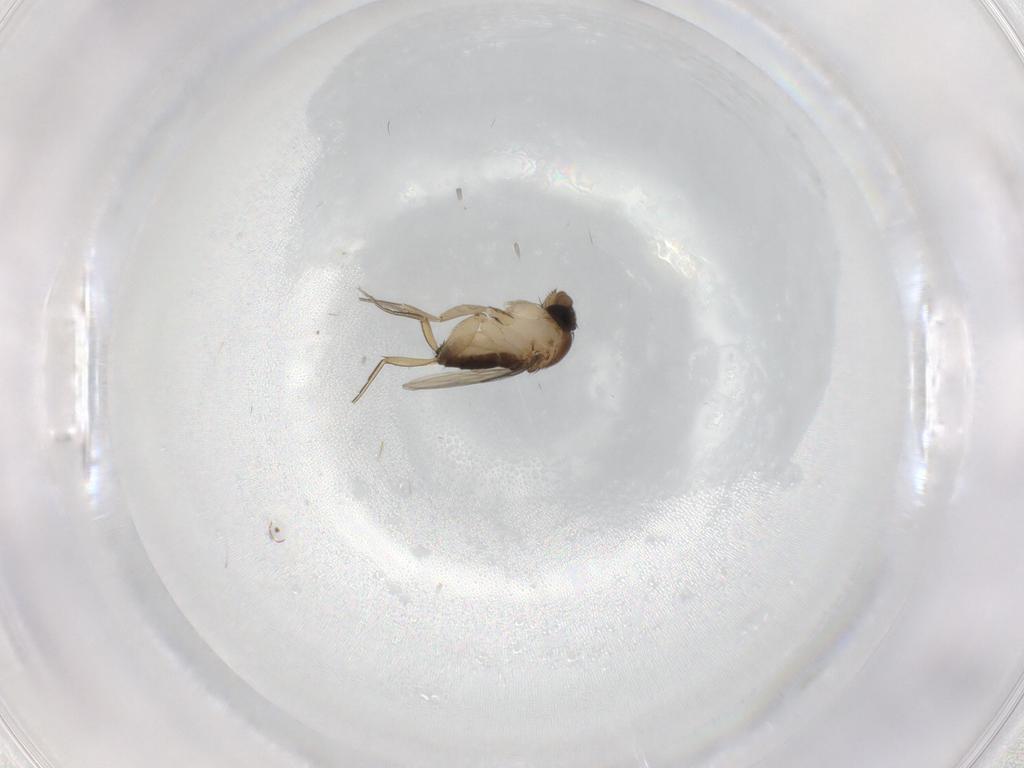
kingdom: Animalia
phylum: Arthropoda
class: Insecta
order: Diptera
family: Phoridae
